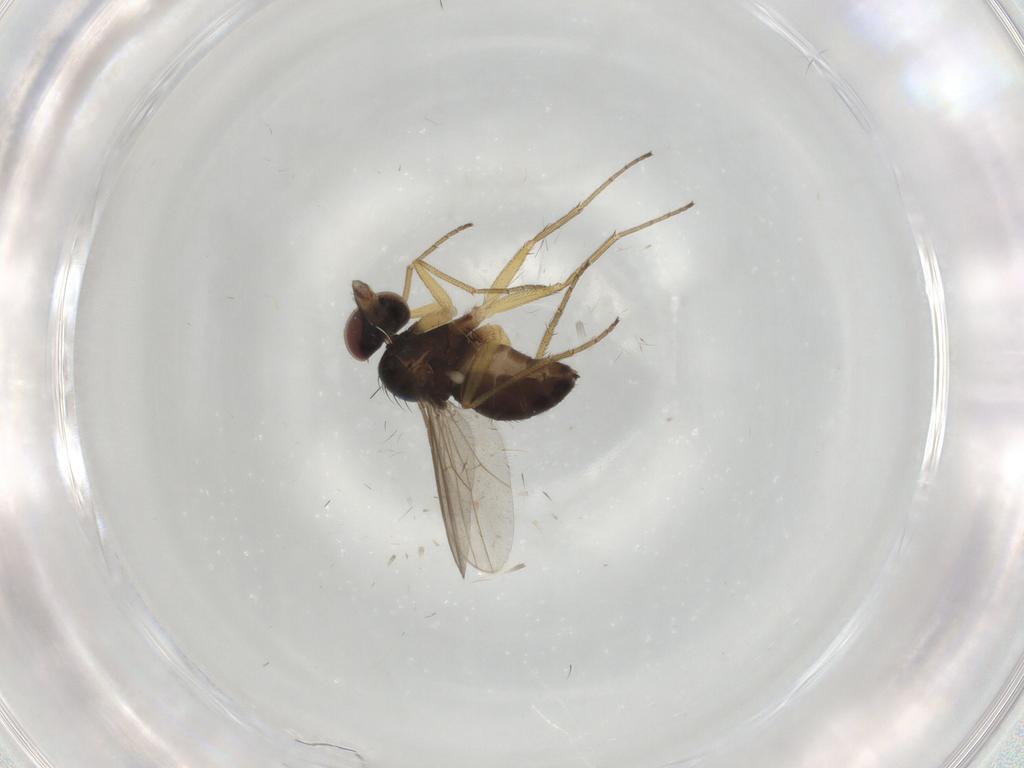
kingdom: Animalia
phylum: Arthropoda
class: Insecta
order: Diptera
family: Dolichopodidae
